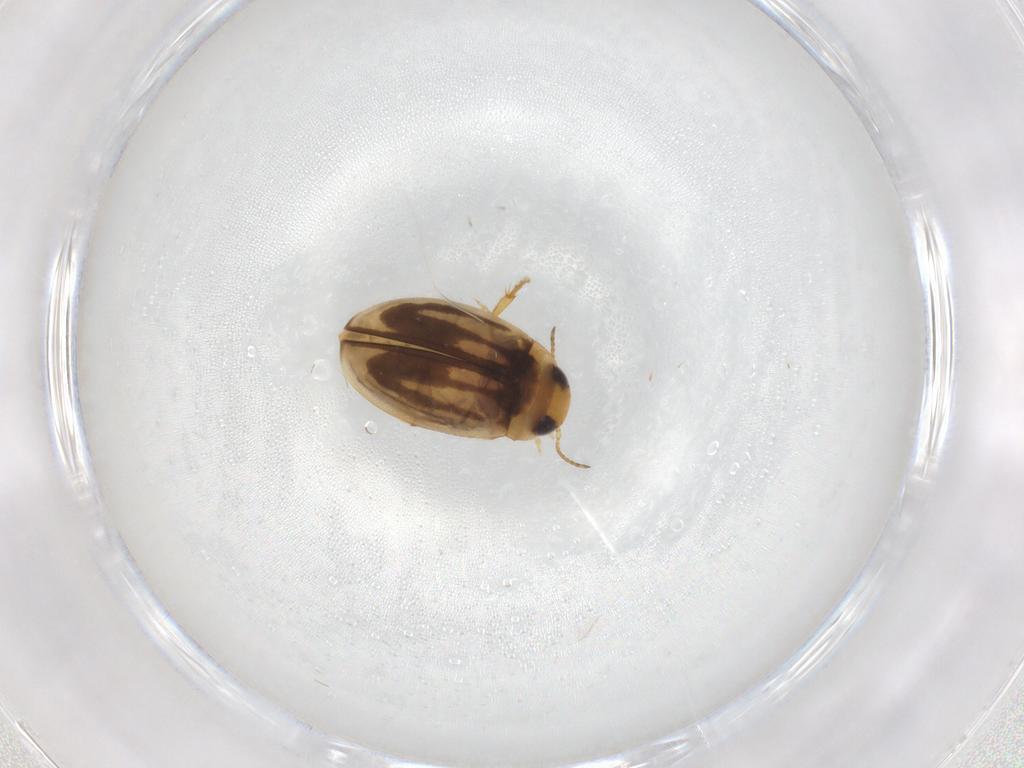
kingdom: Animalia
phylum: Arthropoda
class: Insecta
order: Coleoptera
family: Dytiscidae
